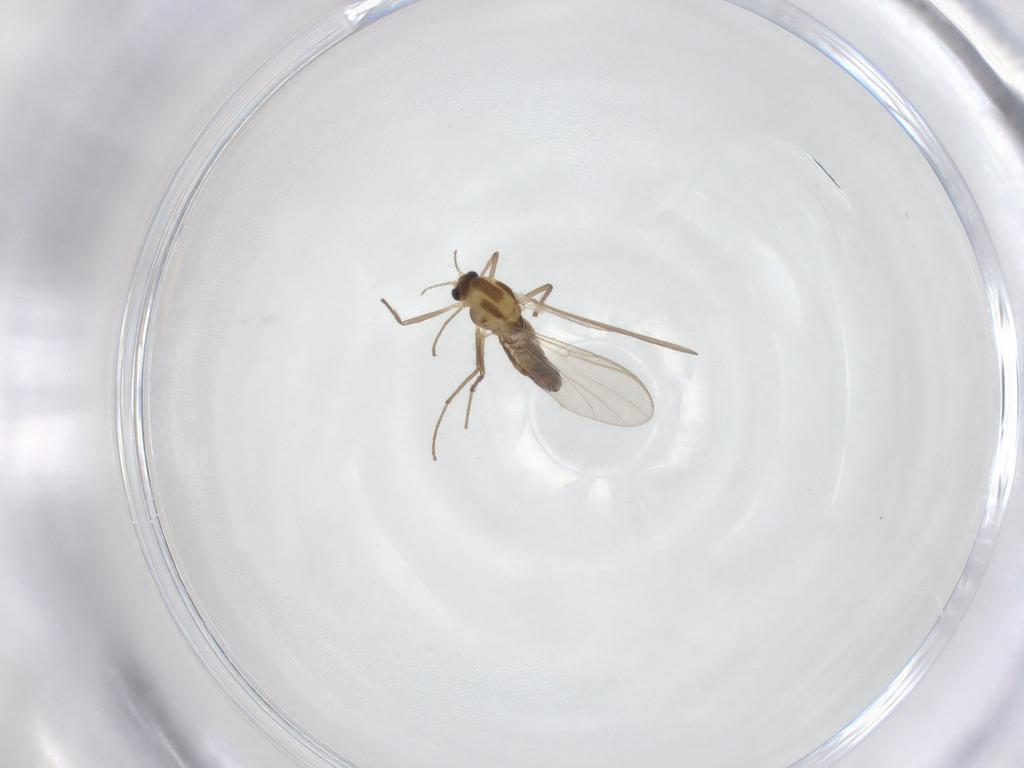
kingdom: Animalia
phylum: Arthropoda
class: Insecta
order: Diptera
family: Chironomidae
